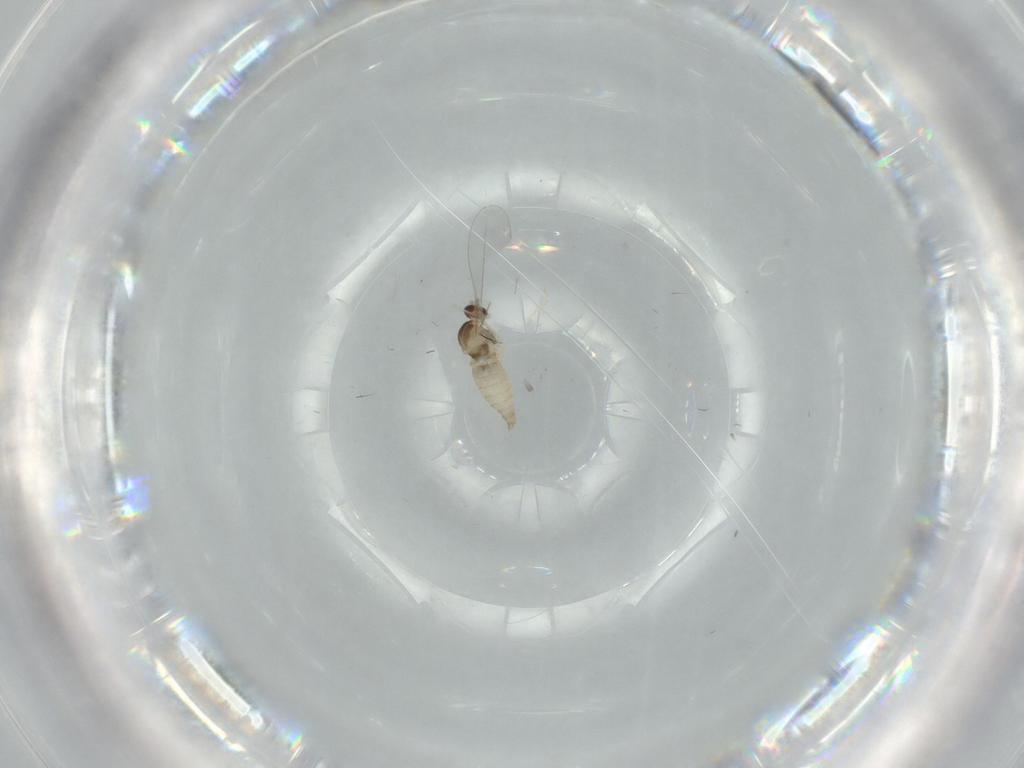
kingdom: Animalia
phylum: Arthropoda
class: Insecta
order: Diptera
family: Cecidomyiidae
